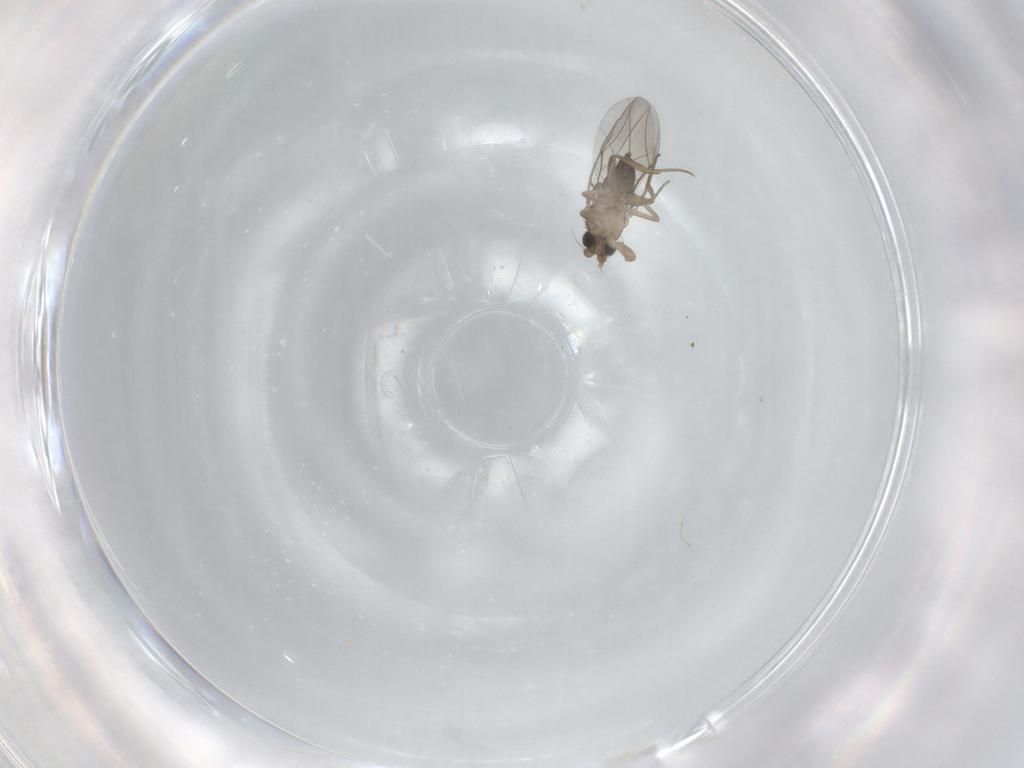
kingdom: Animalia
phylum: Arthropoda
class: Insecta
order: Diptera
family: Phoridae
